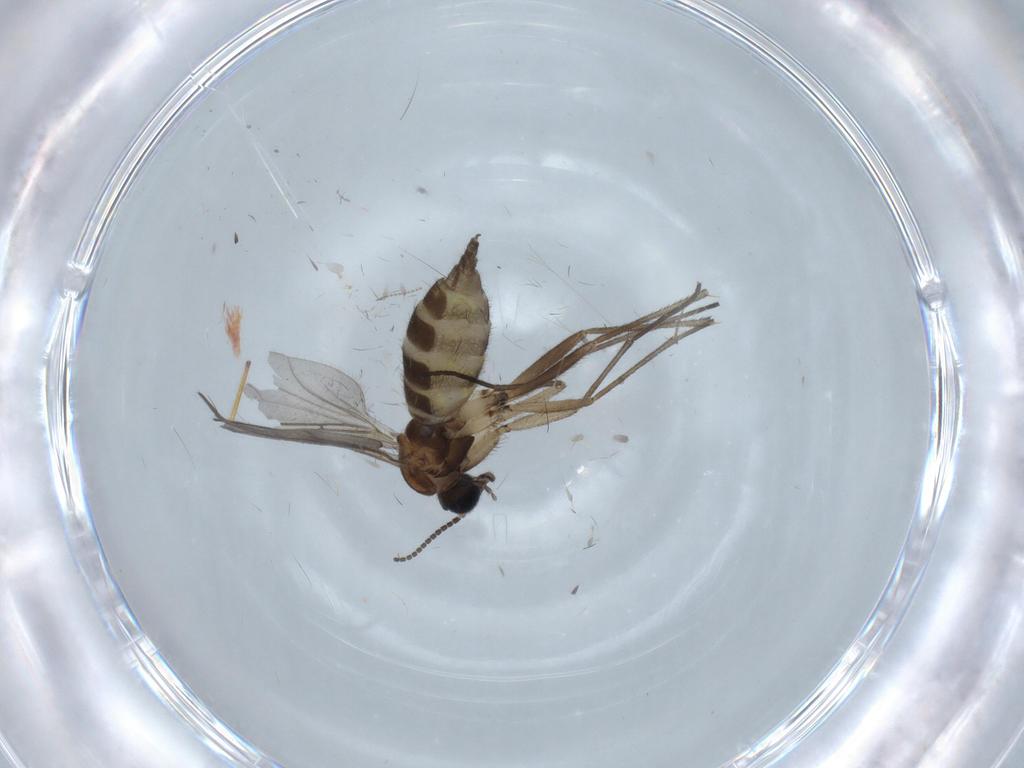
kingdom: Animalia
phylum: Arthropoda
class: Insecta
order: Diptera
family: Sciaridae
